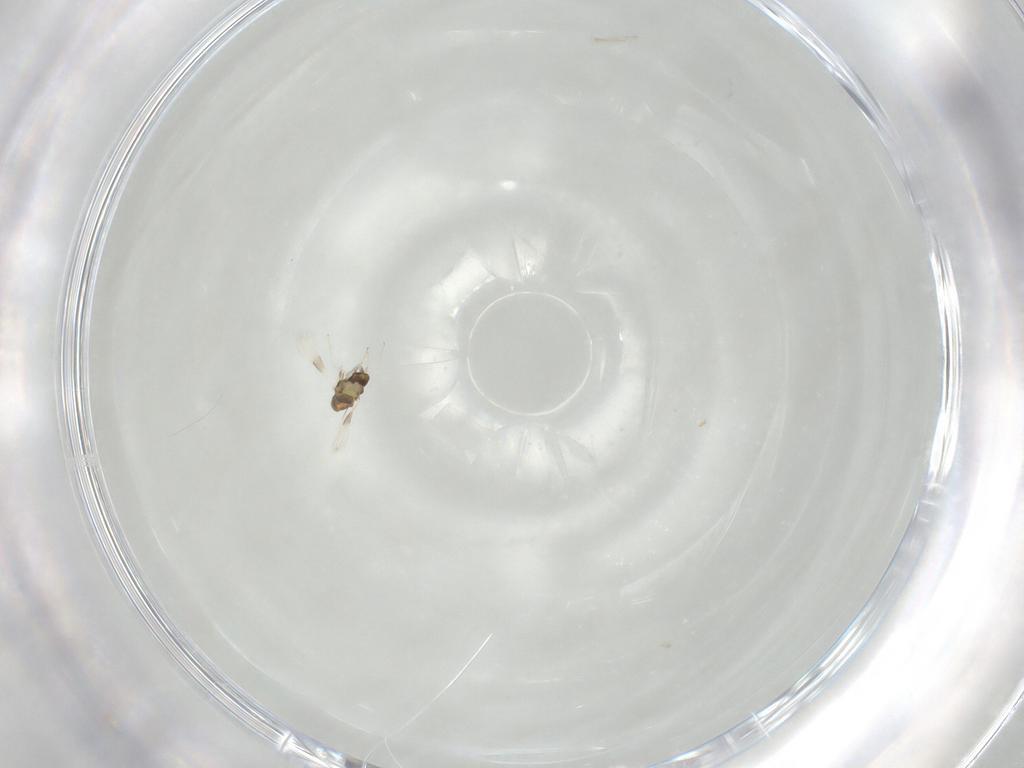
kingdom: Animalia
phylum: Arthropoda
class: Insecta
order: Hymenoptera
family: Aphelinidae
